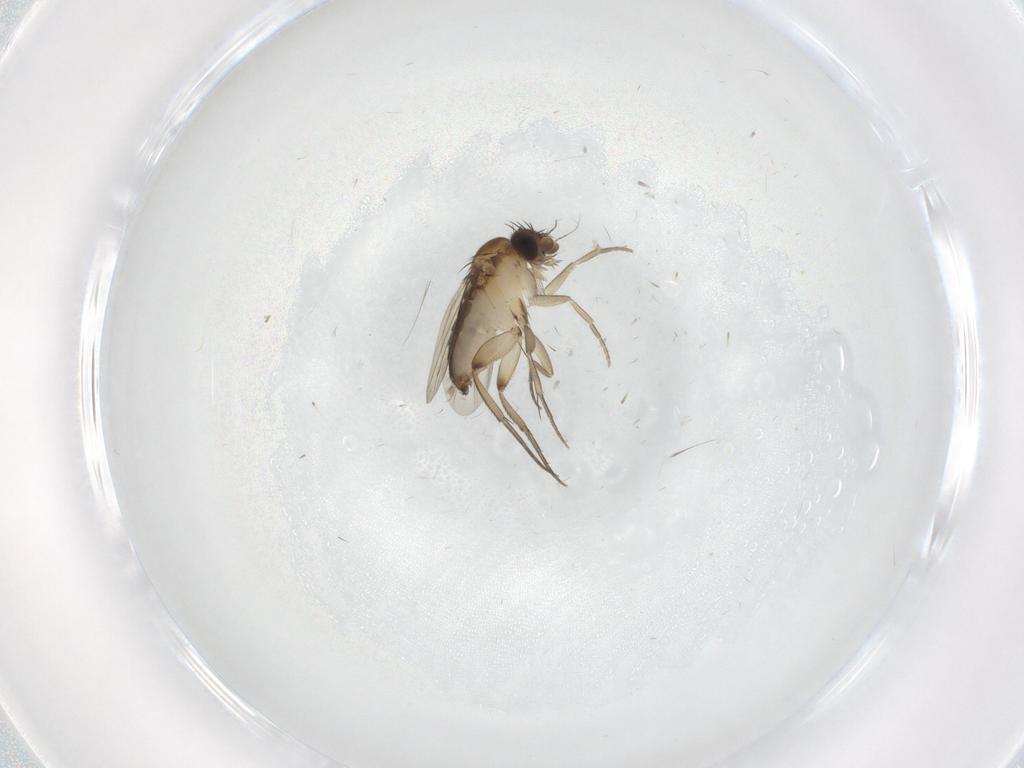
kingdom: Animalia
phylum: Arthropoda
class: Insecta
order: Diptera
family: Phoridae
